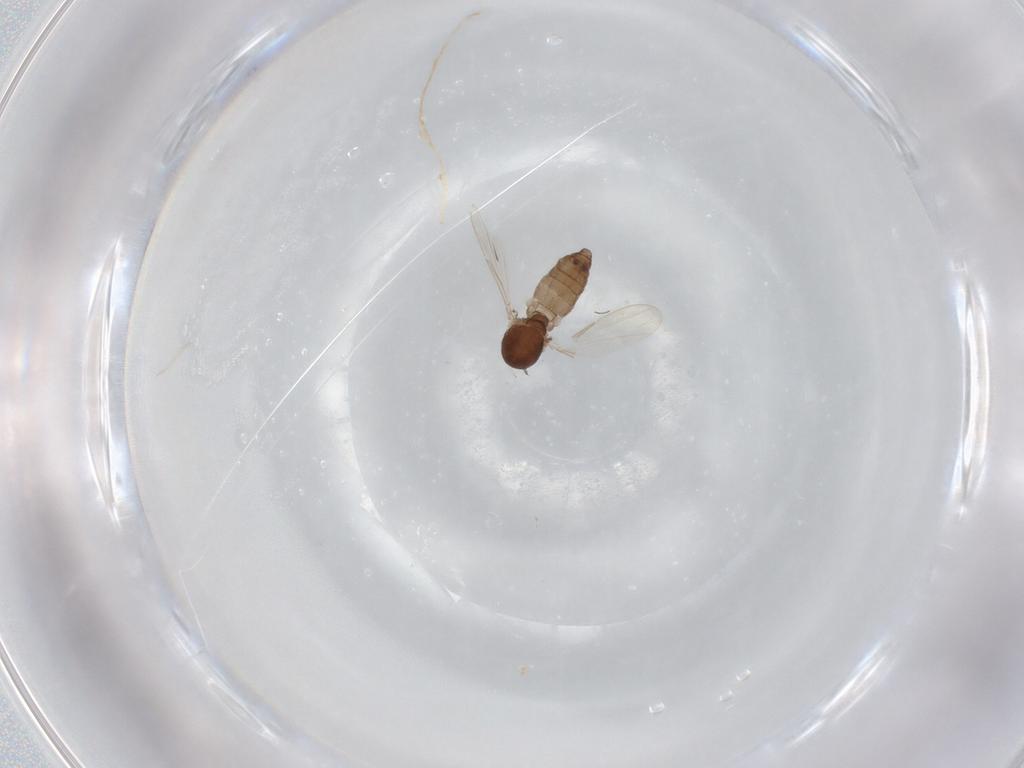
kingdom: Animalia
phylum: Arthropoda
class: Insecta
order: Diptera
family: Ceratopogonidae
